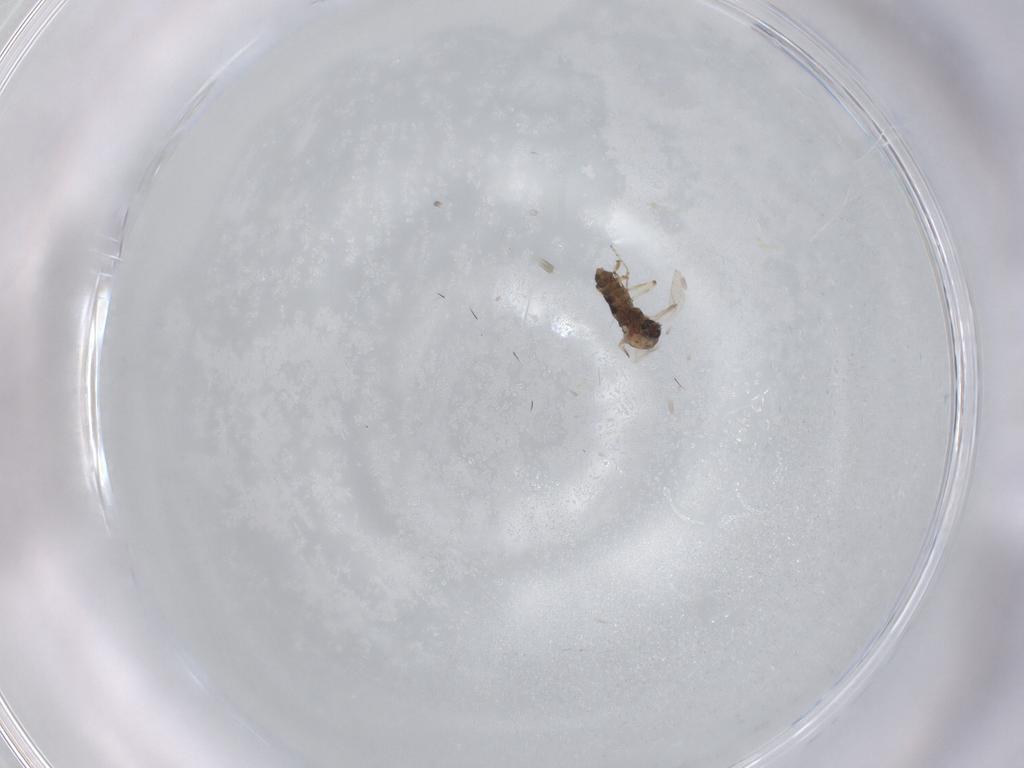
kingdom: Animalia
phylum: Arthropoda
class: Insecta
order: Diptera
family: Ceratopogonidae
